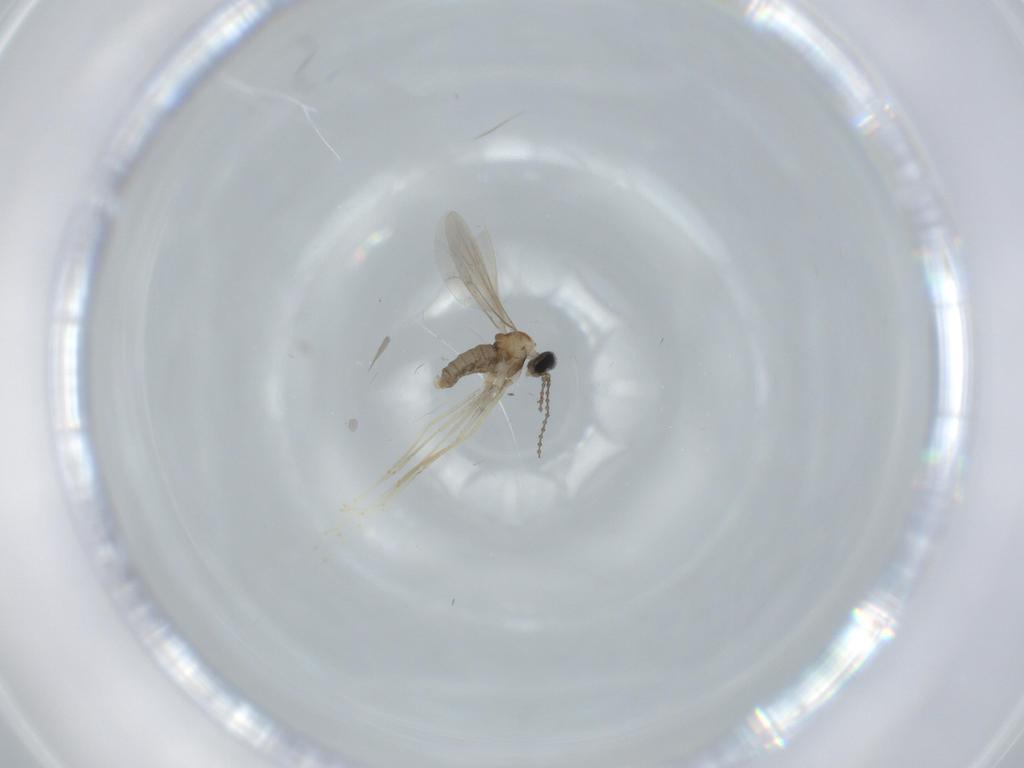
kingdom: Animalia
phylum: Arthropoda
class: Insecta
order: Diptera
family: Cecidomyiidae
